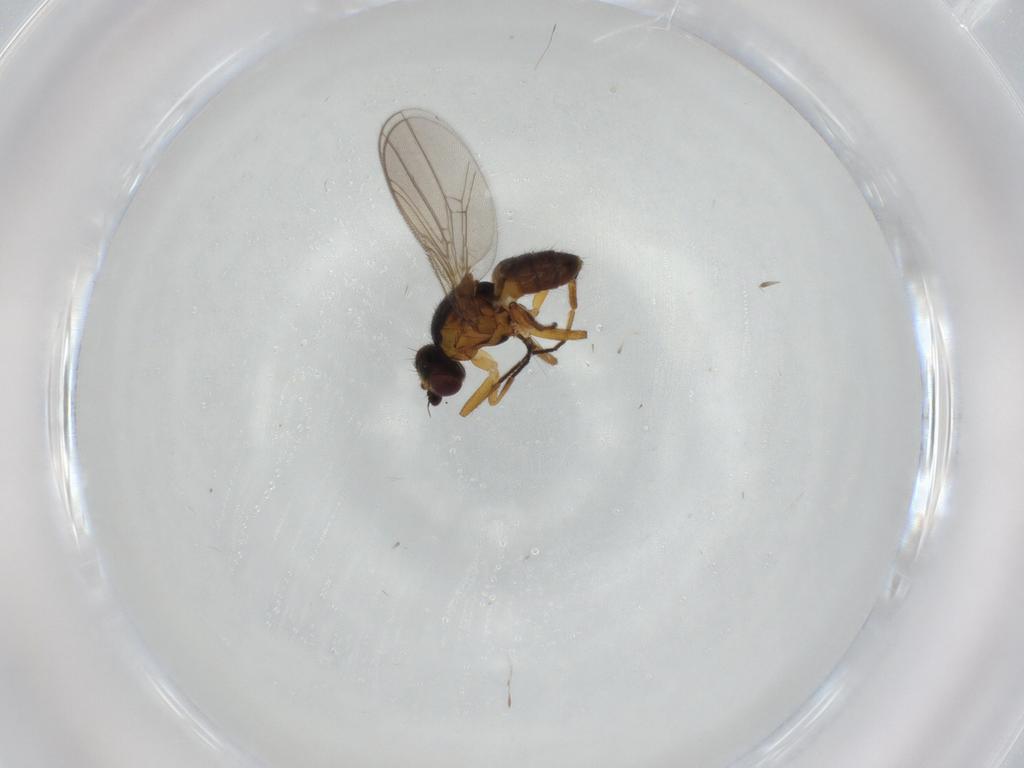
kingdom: Animalia
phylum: Arthropoda
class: Insecta
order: Diptera
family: Chloropidae
